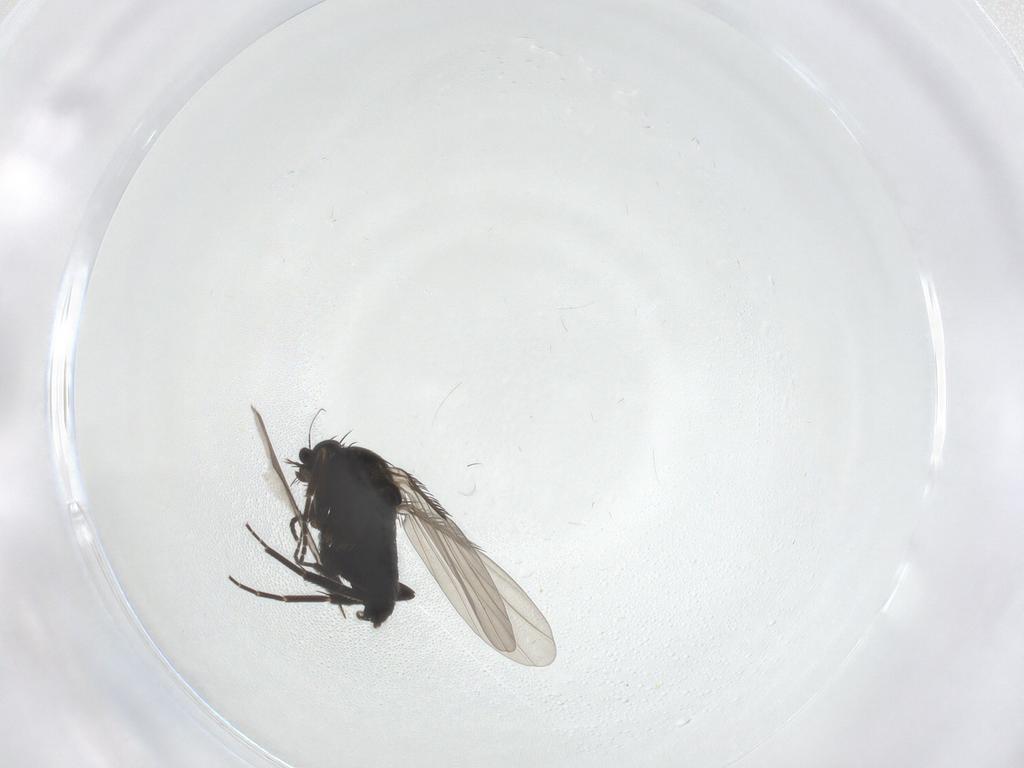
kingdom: Animalia
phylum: Arthropoda
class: Insecta
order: Diptera
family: Phoridae
